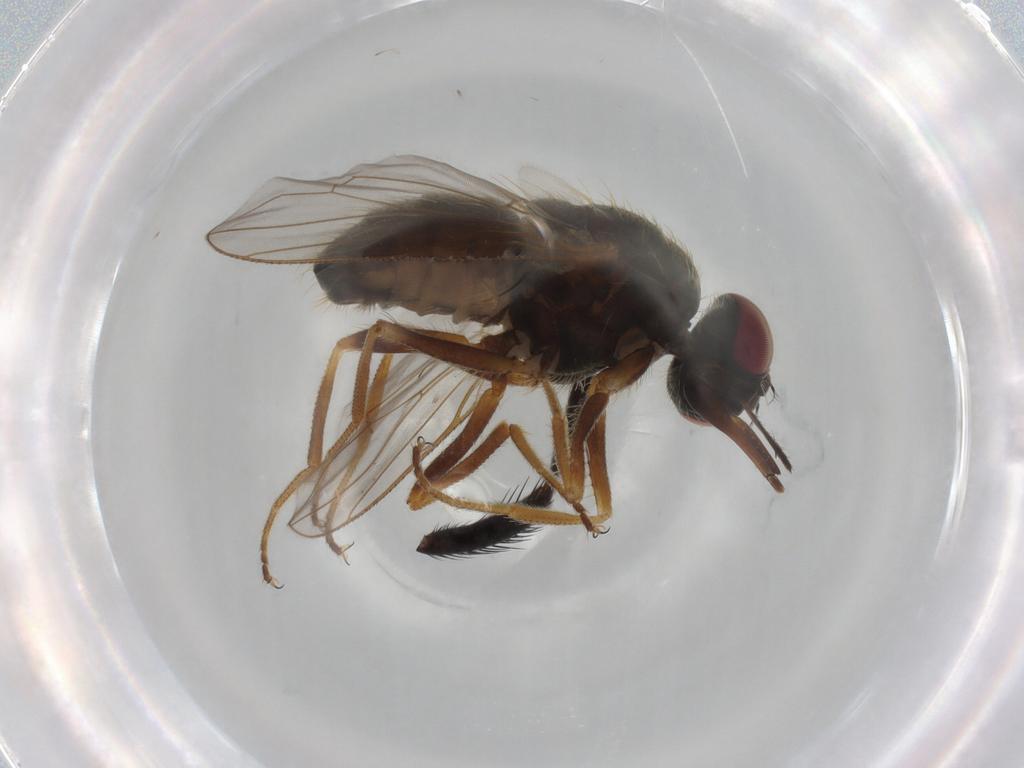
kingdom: Animalia
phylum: Arthropoda
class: Insecta
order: Diptera
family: Muscidae
